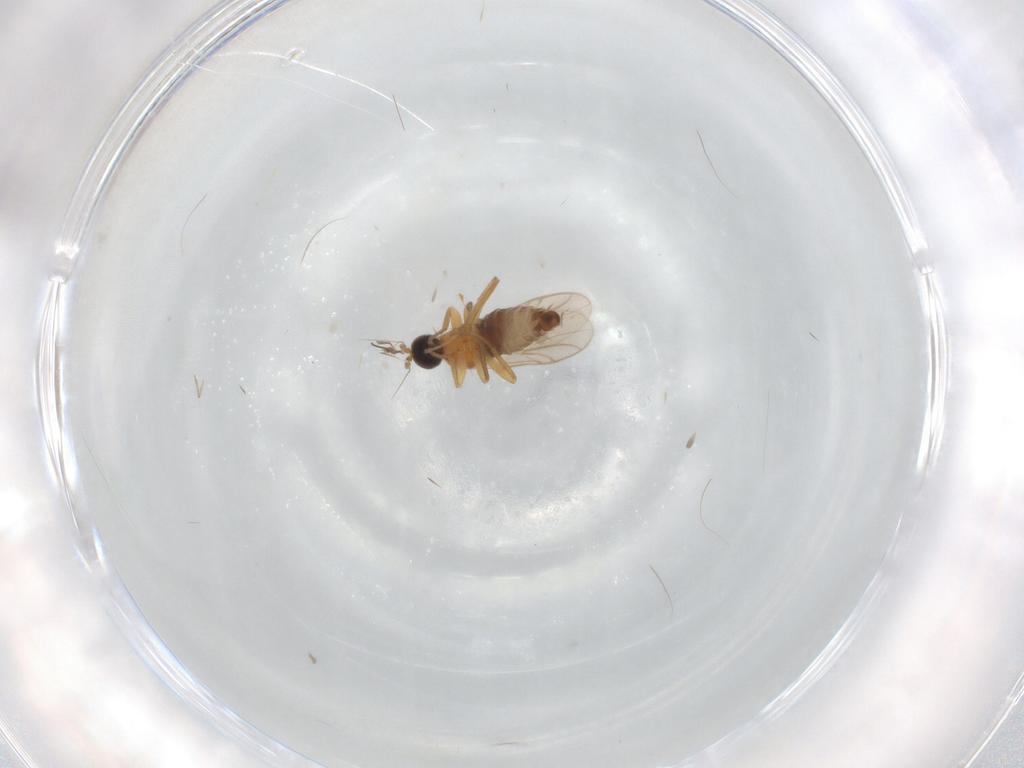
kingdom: Animalia
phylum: Arthropoda
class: Insecta
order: Diptera
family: Hybotidae
